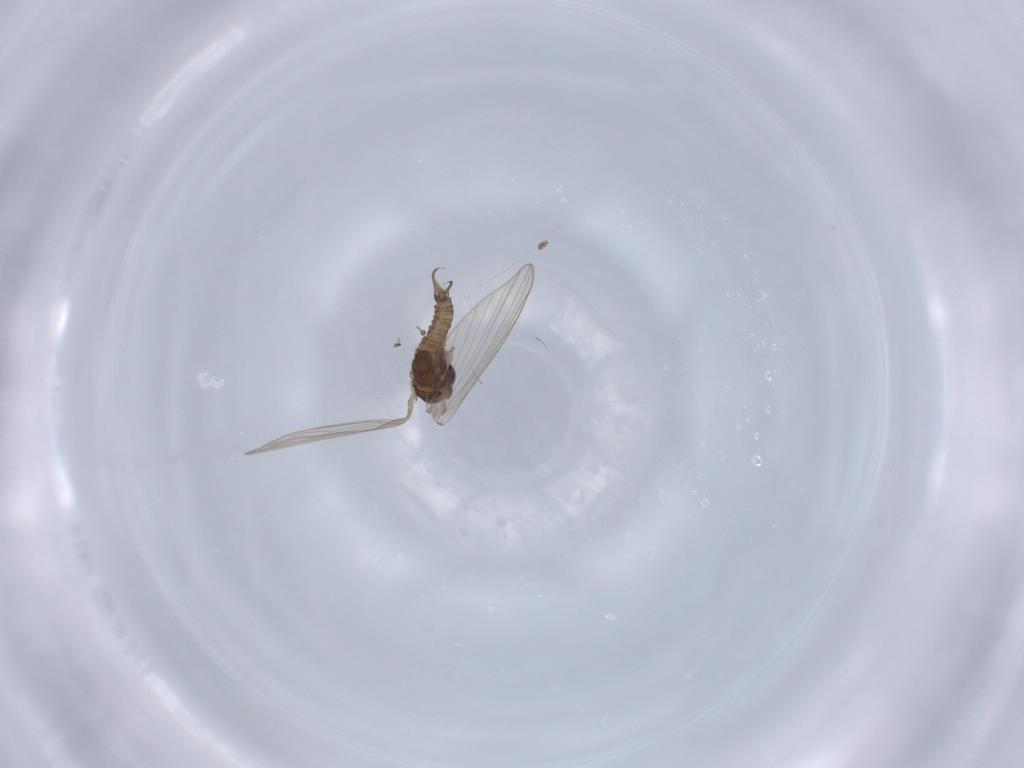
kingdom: Animalia
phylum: Arthropoda
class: Insecta
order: Diptera
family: Psychodidae
